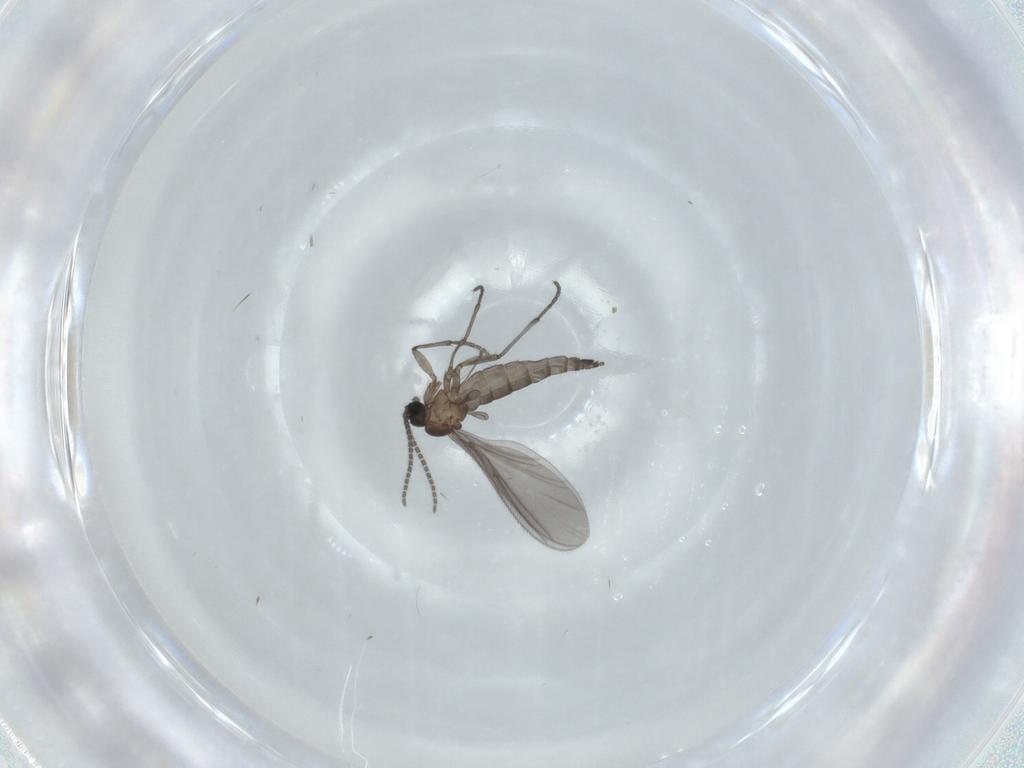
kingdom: Animalia
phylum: Arthropoda
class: Insecta
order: Diptera
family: Sciaridae
